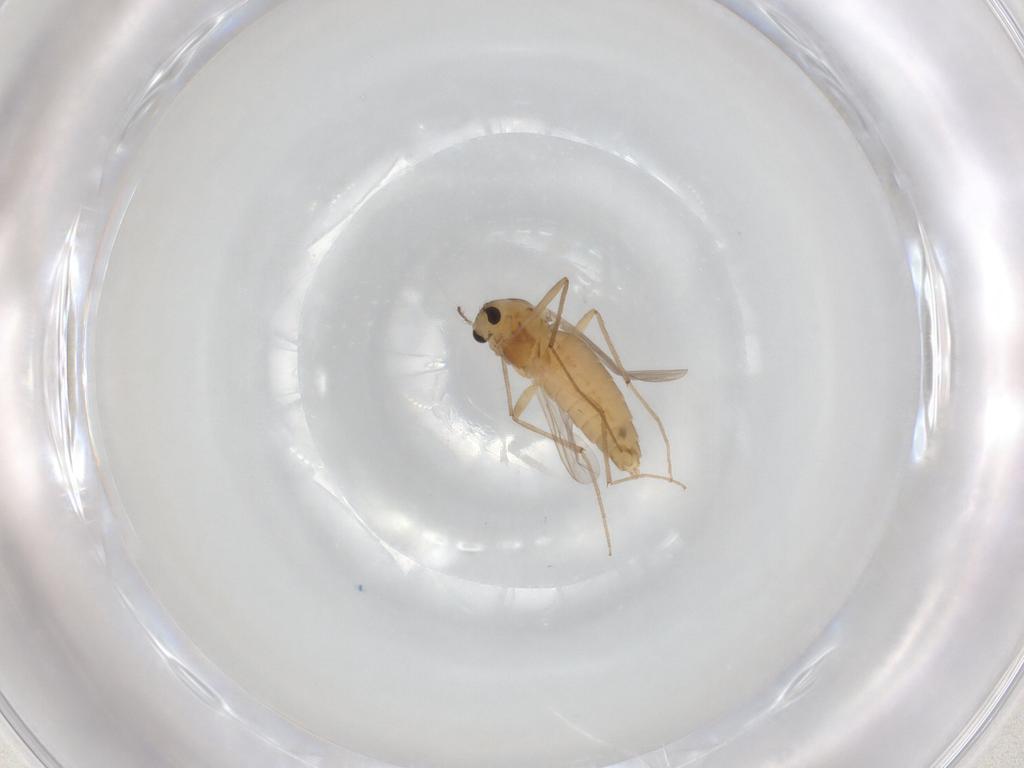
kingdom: Animalia
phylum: Arthropoda
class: Insecta
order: Diptera
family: Chironomidae
